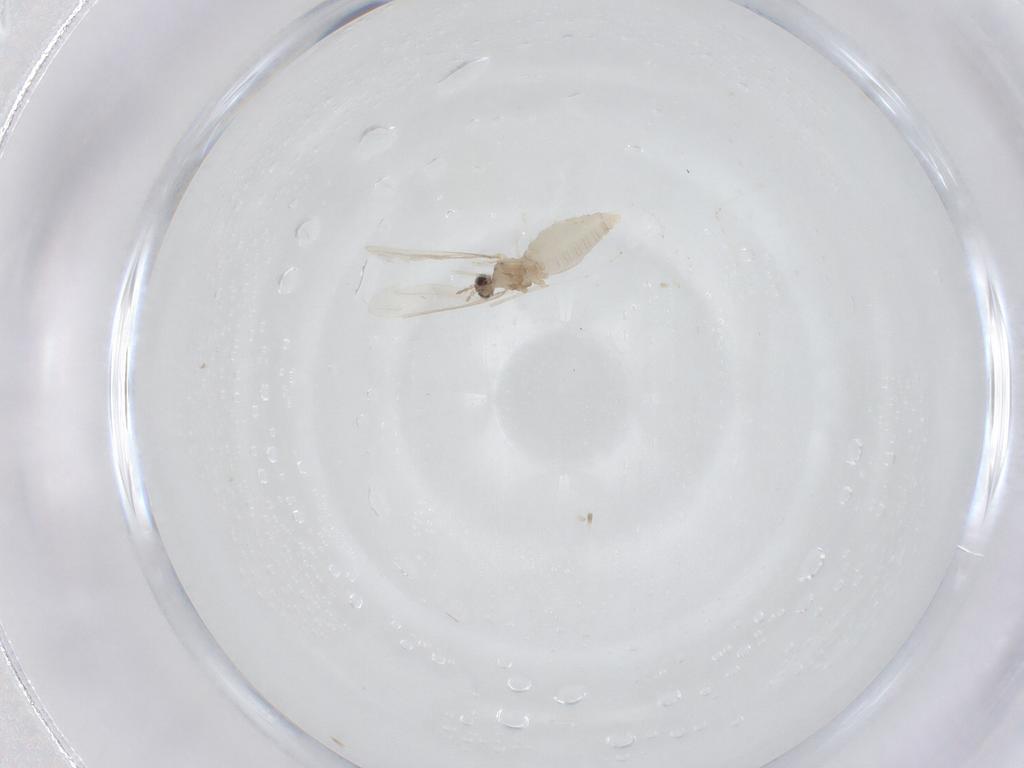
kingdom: Animalia
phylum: Arthropoda
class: Insecta
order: Diptera
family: Cecidomyiidae
